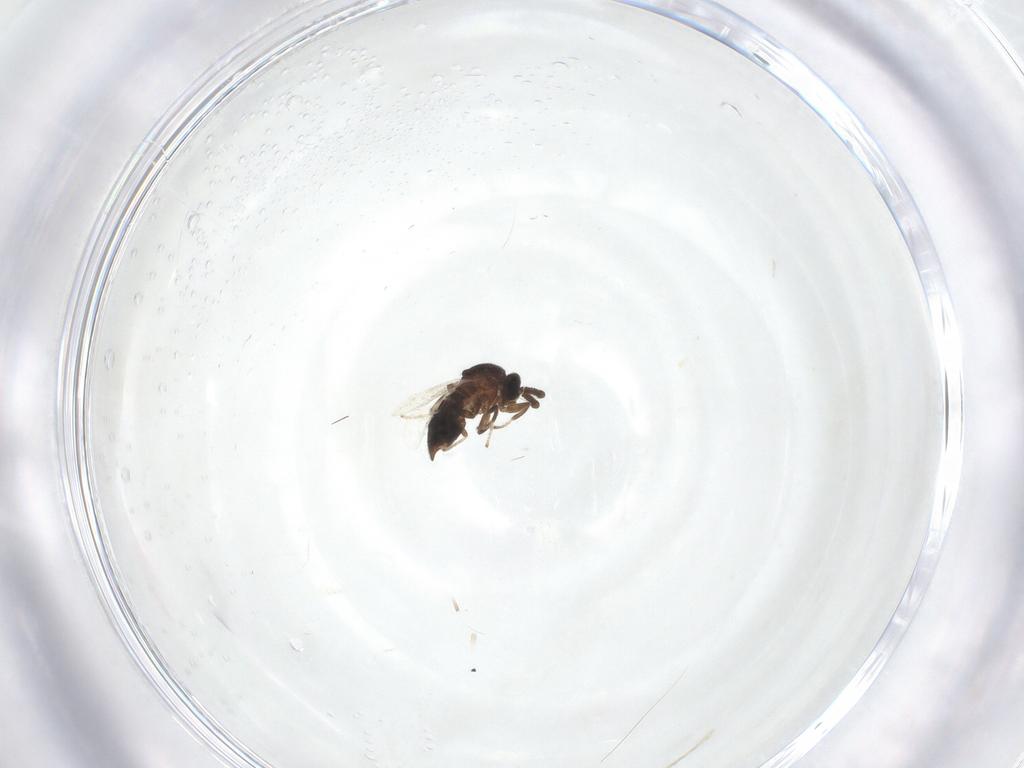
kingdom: Animalia
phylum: Arthropoda
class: Insecta
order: Diptera
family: Scatopsidae
